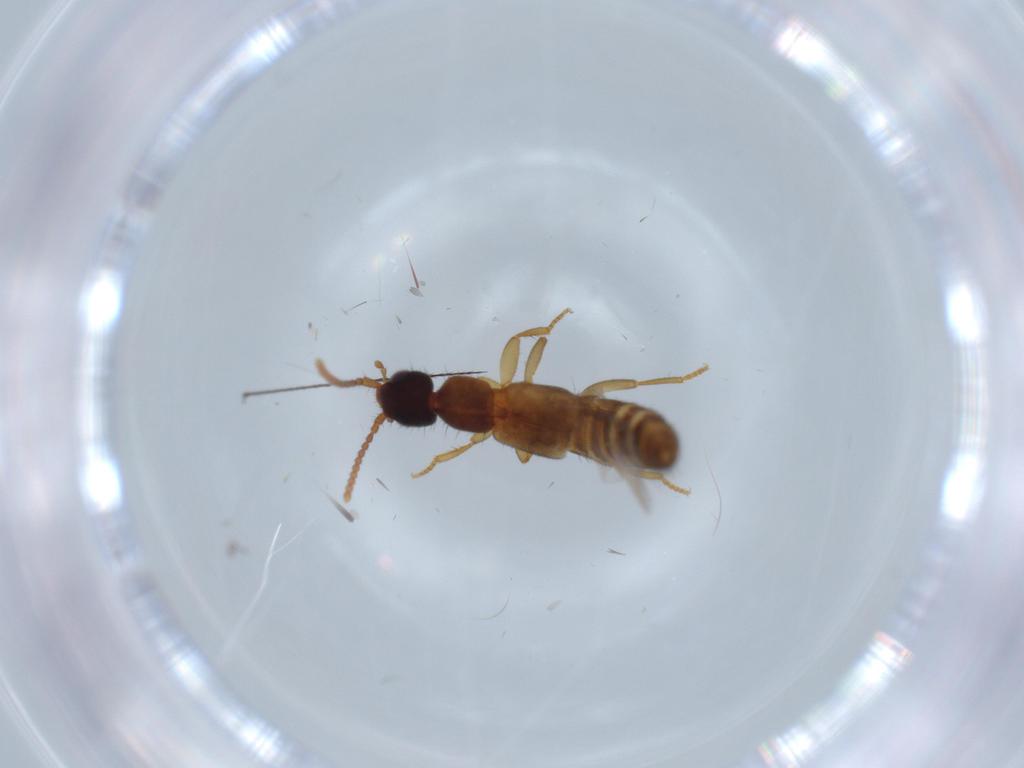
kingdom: Animalia
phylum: Arthropoda
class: Insecta
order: Coleoptera
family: Staphylinidae
